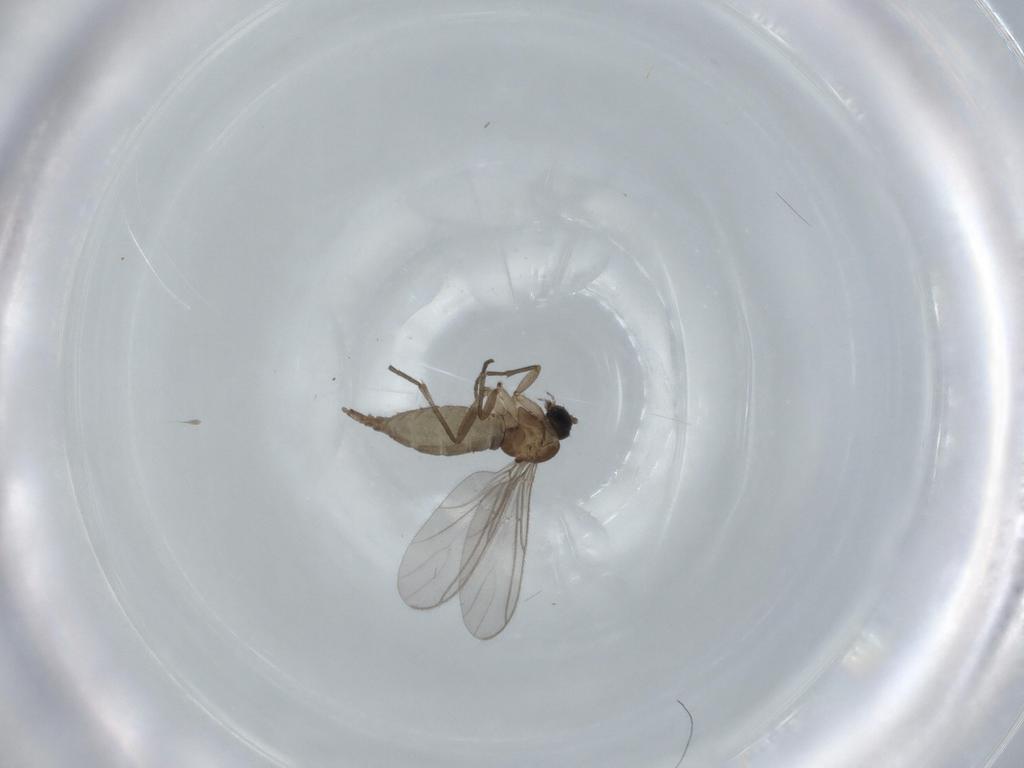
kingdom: Animalia
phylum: Arthropoda
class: Insecta
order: Diptera
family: Sciaridae
